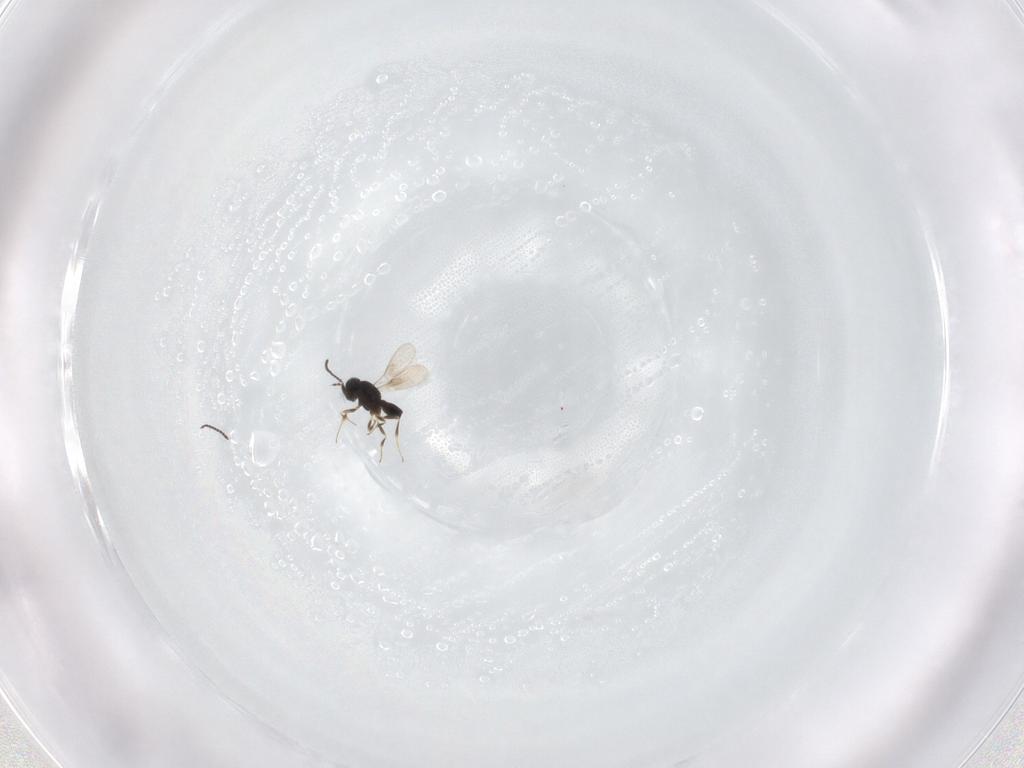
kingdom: Animalia
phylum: Arthropoda
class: Insecta
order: Hymenoptera
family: Scelionidae
